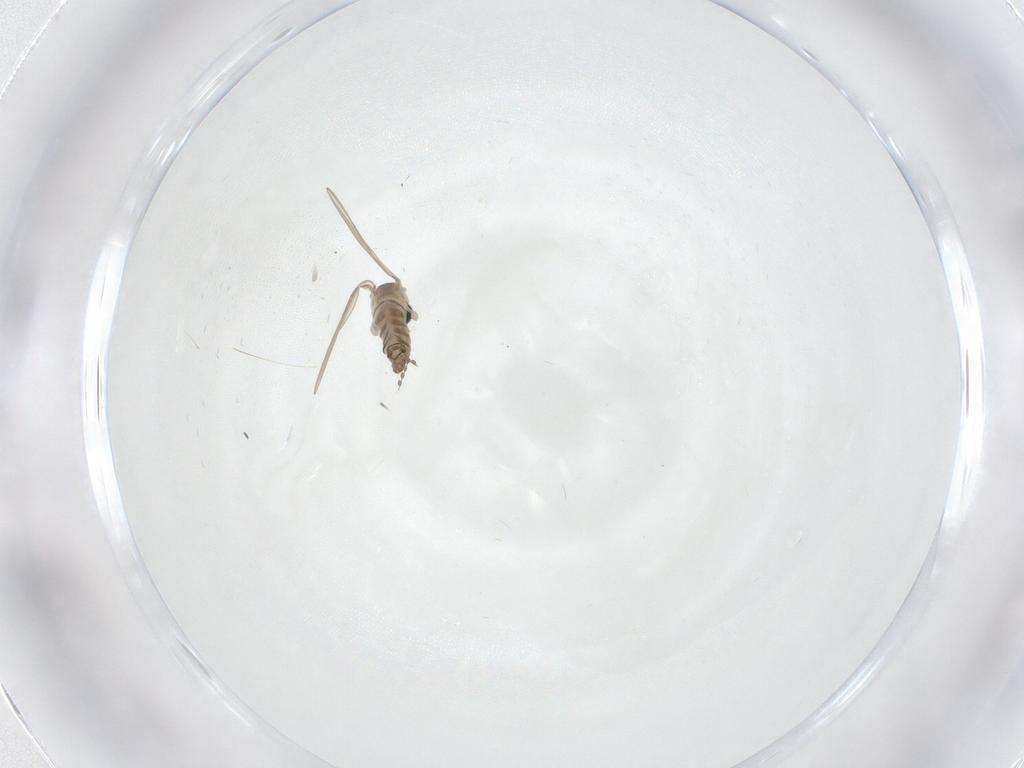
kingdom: Animalia
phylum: Arthropoda
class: Insecta
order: Diptera
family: Psychodidae
